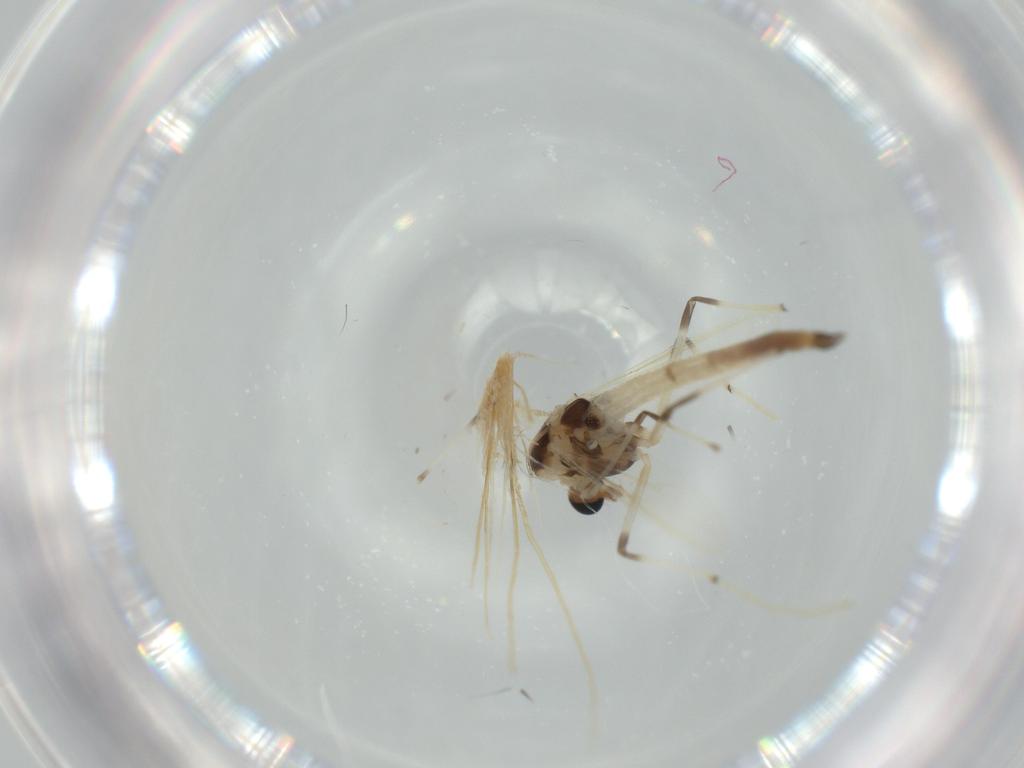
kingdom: Animalia
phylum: Arthropoda
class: Insecta
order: Diptera
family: Chironomidae
